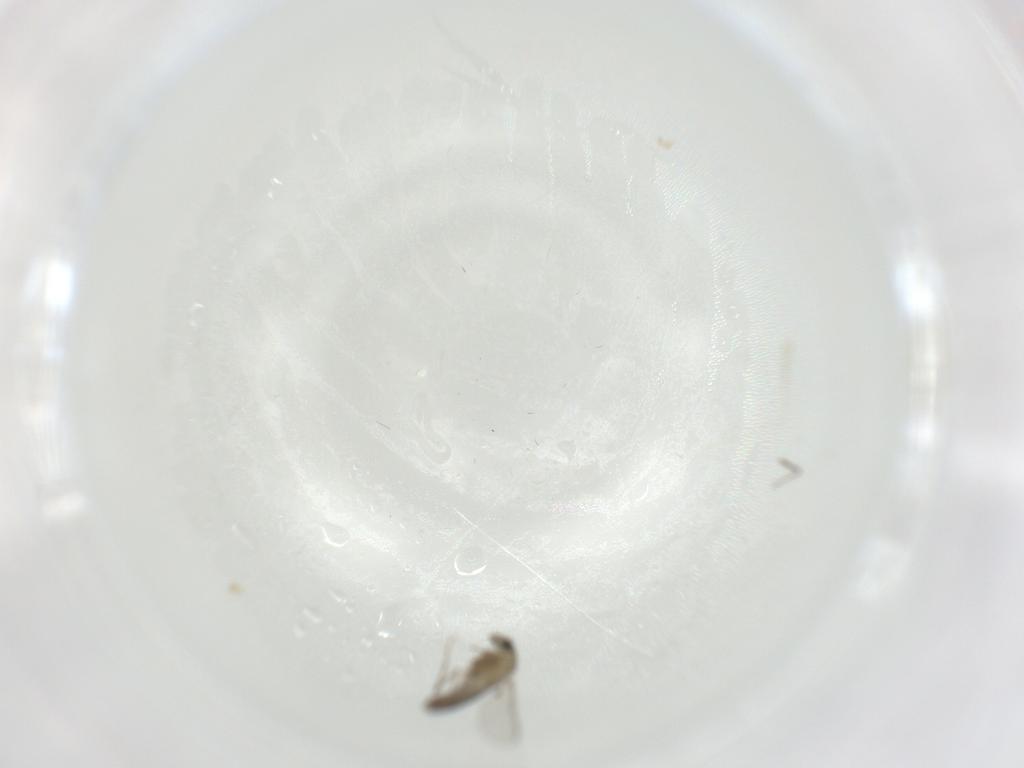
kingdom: Animalia
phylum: Arthropoda
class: Insecta
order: Diptera
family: Chironomidae
